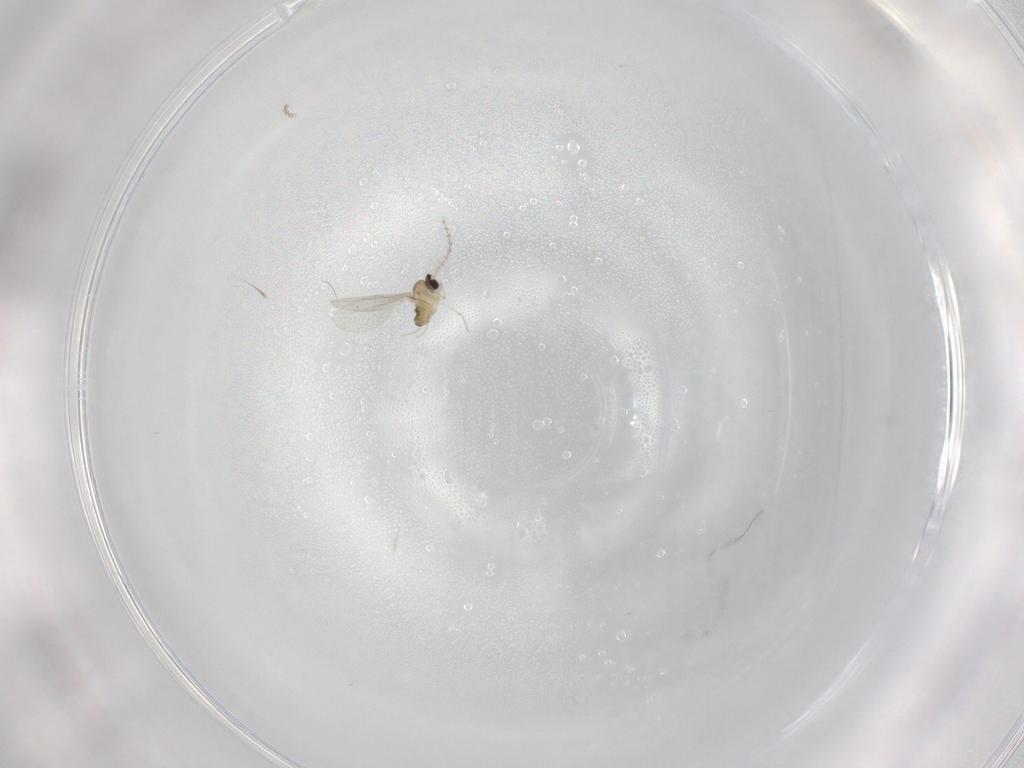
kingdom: Animalia
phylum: Arthropoda
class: Insecta
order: Diptera
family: Cecidomyiidae
